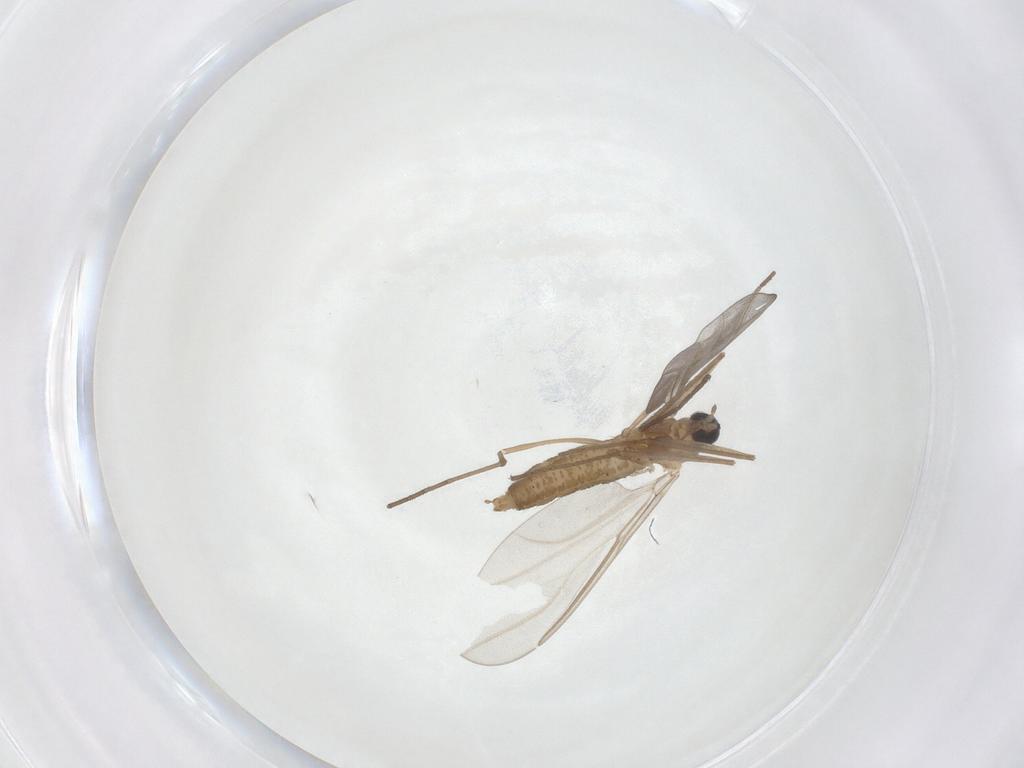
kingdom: Animalia
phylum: Arthropoda
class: Insecta
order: Diptera
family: Cecidomyiidae
